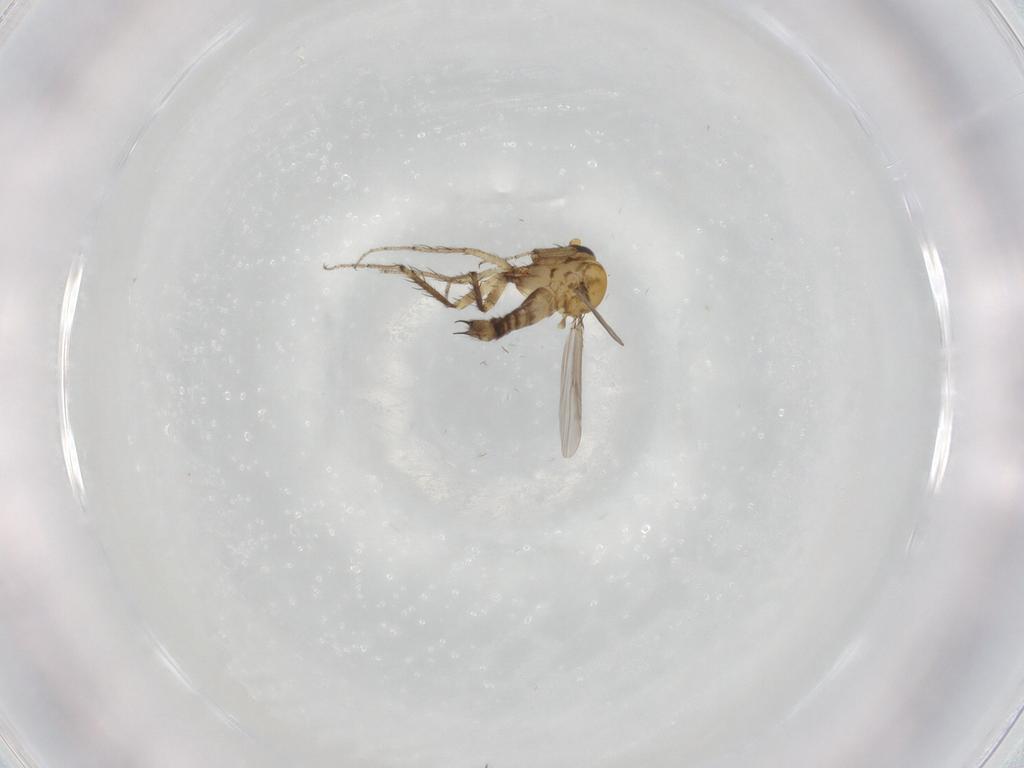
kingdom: Animalia
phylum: Arthropoda
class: Insecta
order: Diptera
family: Ceratopogonidae
